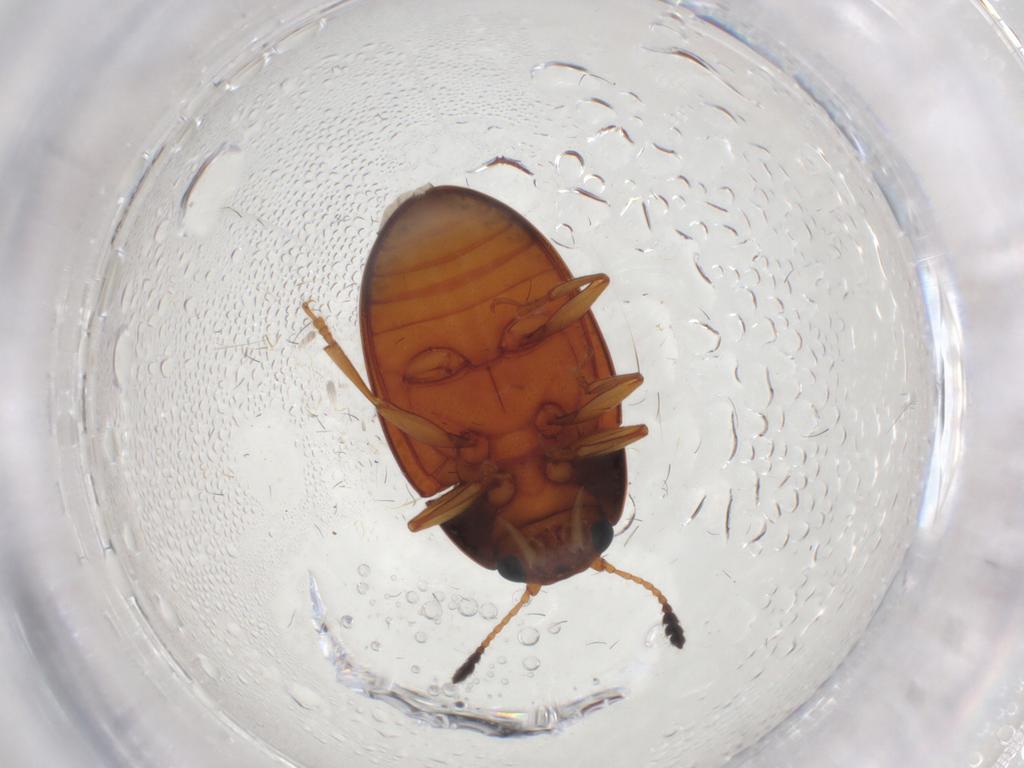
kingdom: Animalia
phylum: Arthropoda
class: Insecta
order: Coleoptera
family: Erotylidae
